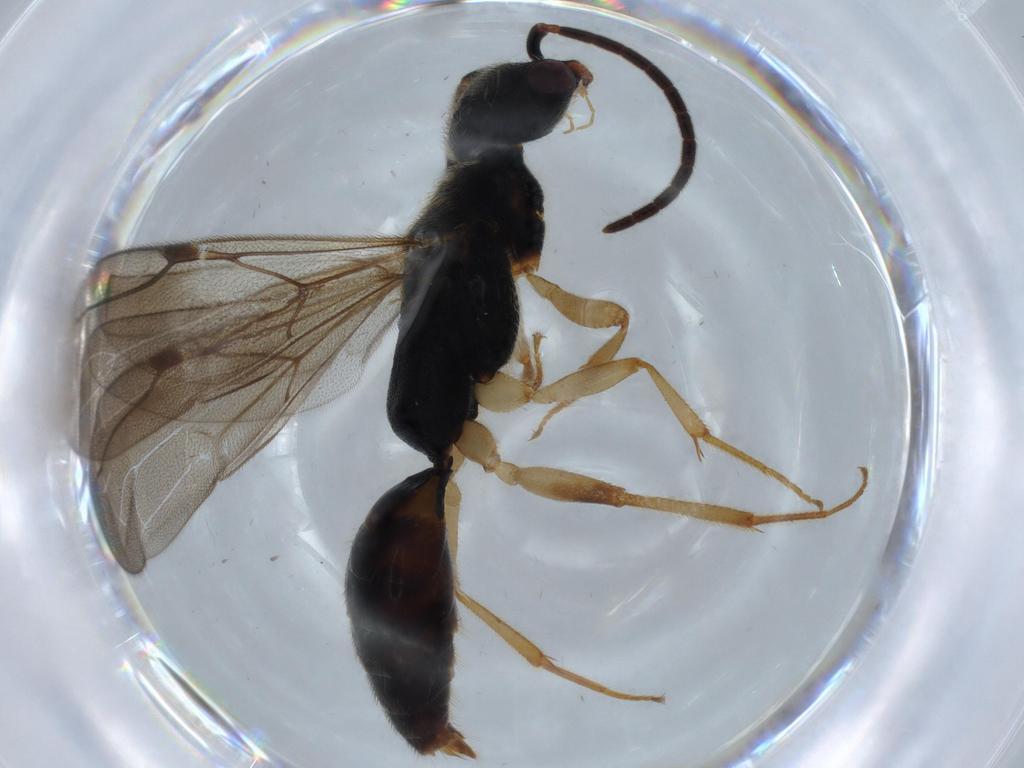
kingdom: Animalia
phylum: Arthropoda
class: Insecta
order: Hymenoptera
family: Bethylidae
